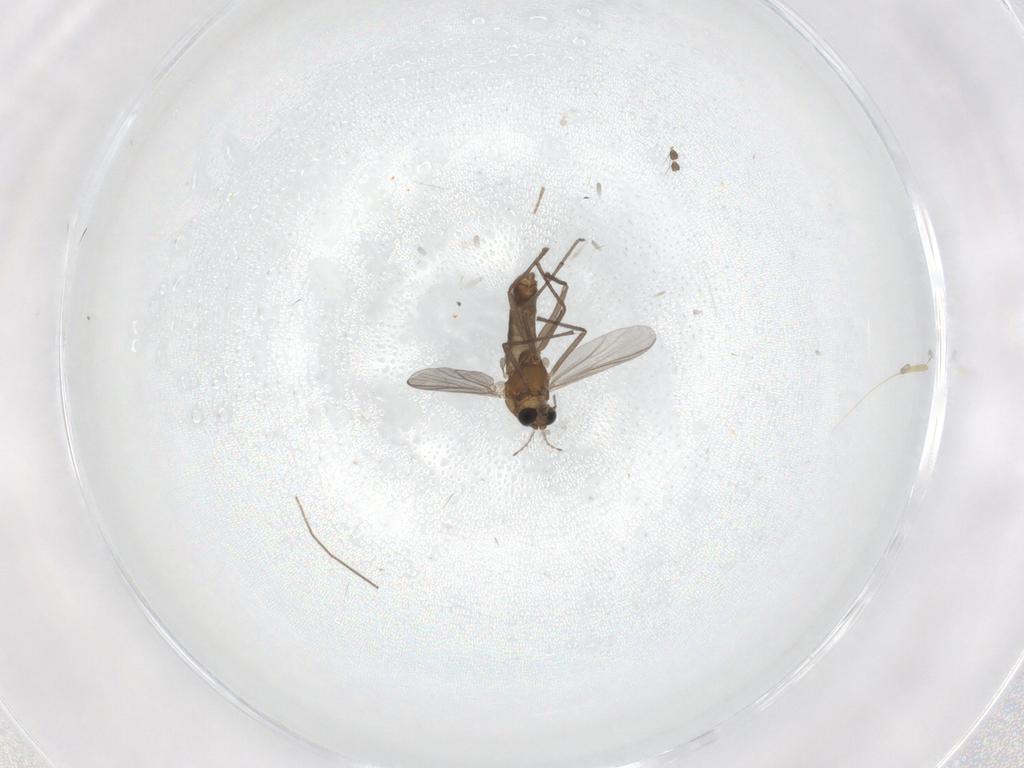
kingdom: Animalia
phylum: Arthropoda
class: Insecta
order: Diptera
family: Chironomidae
